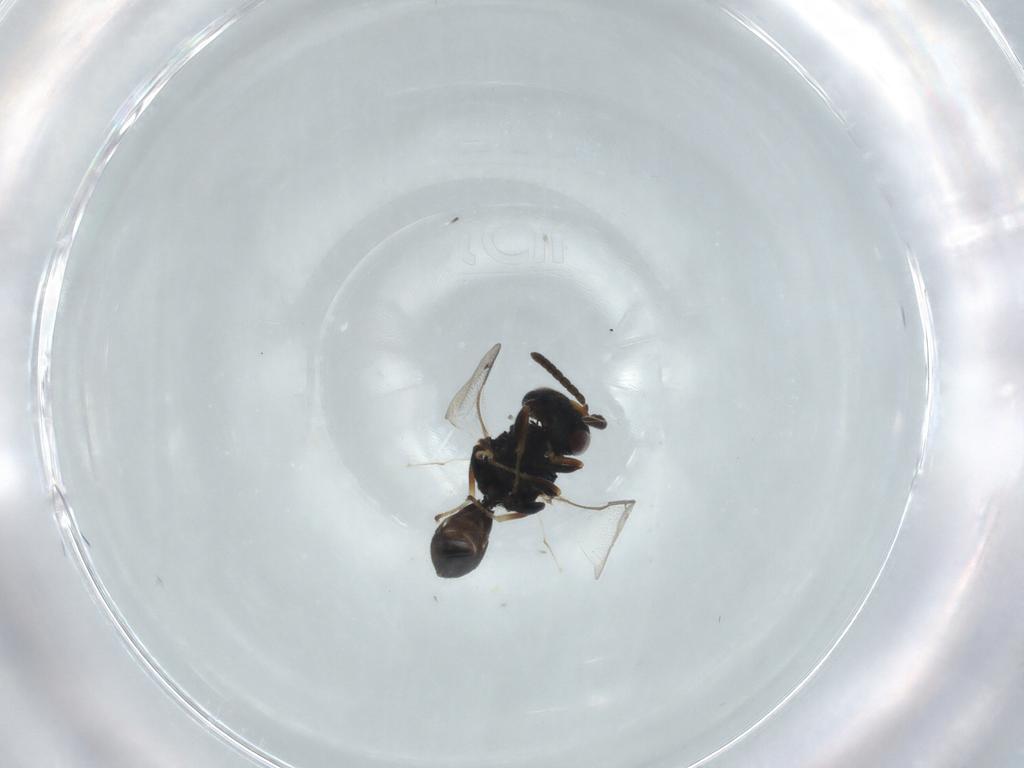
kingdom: Animalia
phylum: Arthropoda
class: Insecta
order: Hymenoptera
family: Pteromalidae
